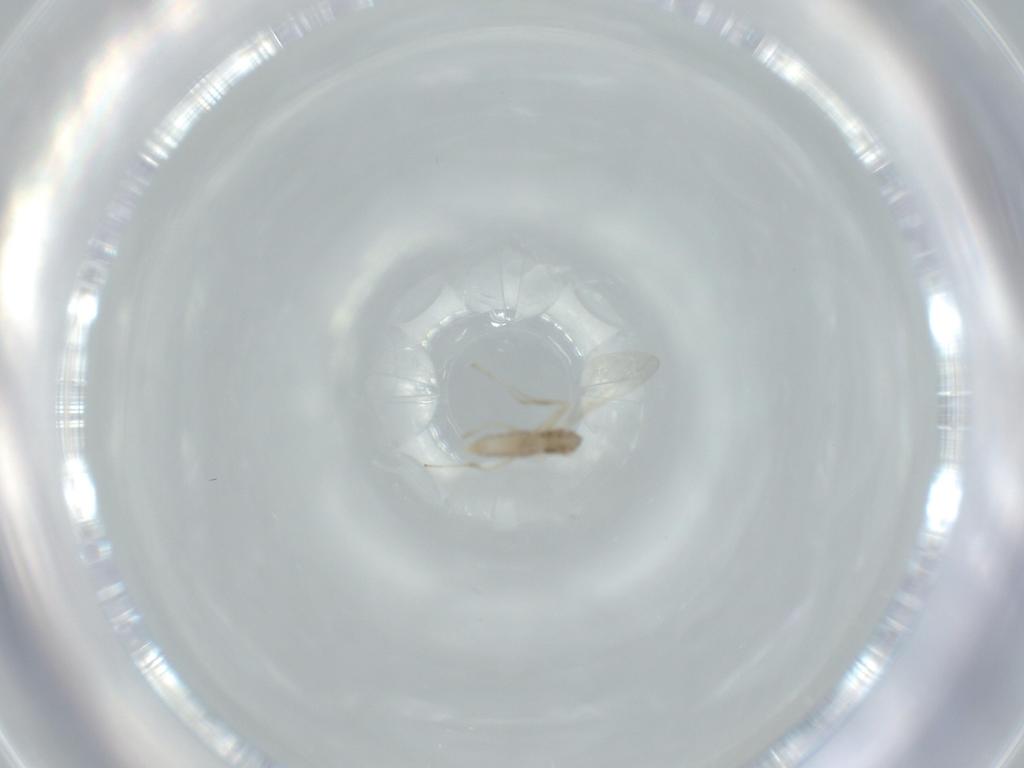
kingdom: Animalia
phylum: Arthropoda
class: Insecta
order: Diptera
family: Cecidomyiidae
